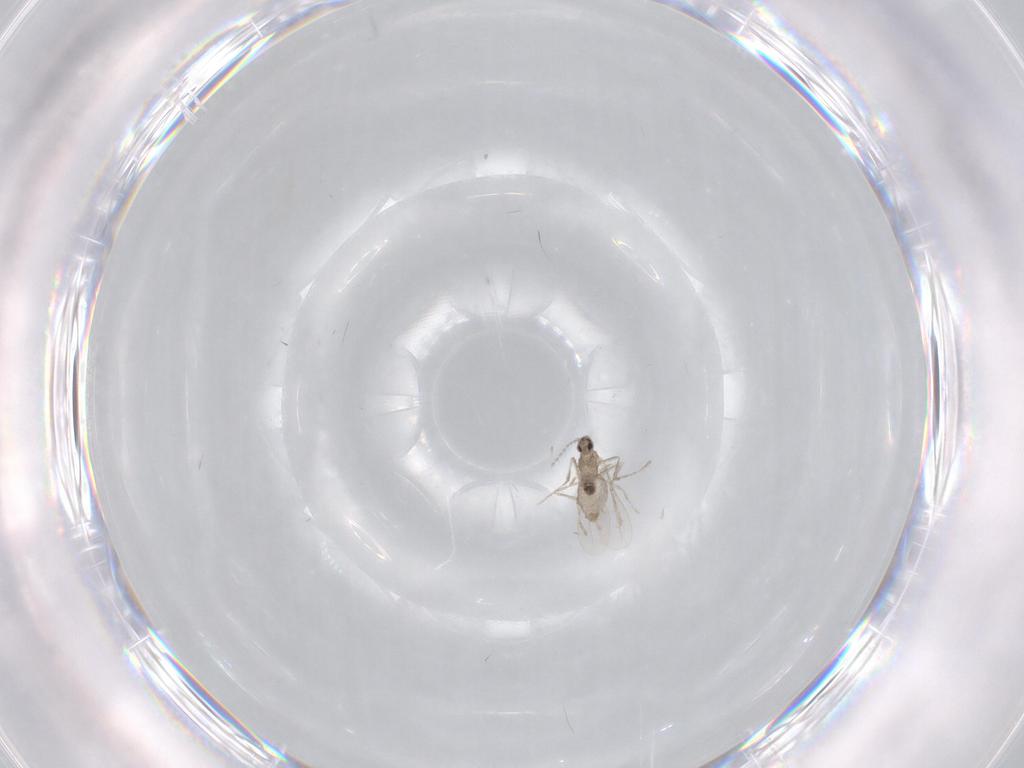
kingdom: Animalia
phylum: Arthropoda
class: Insecta
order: Diptera
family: Cecidomyiidae
